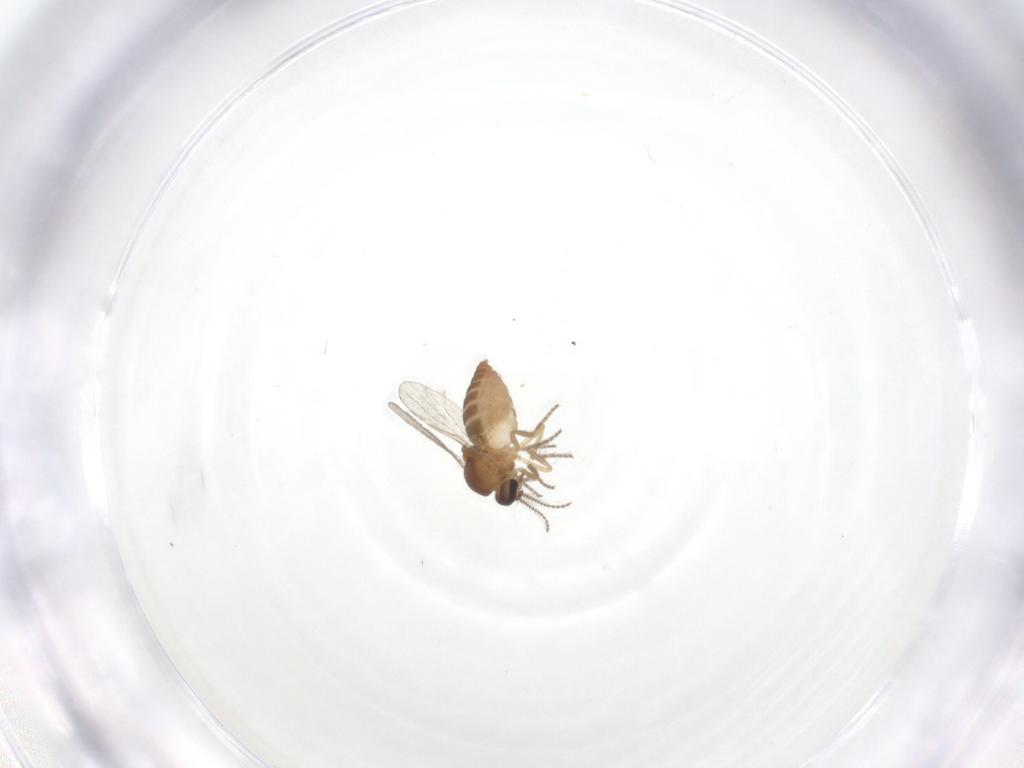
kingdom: Animalia
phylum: Arthropoda
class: Insecta
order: Diptera
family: Ceratopogonidae
